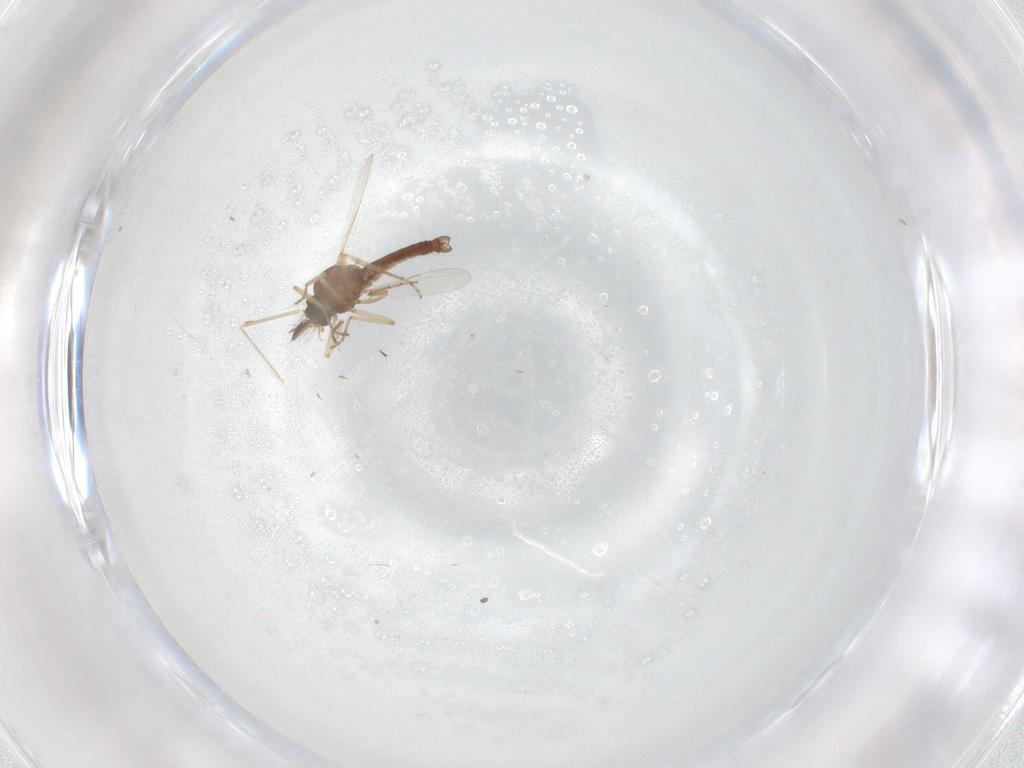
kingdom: Animalia
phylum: Arthropoda
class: Insecta
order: Diptera
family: Ceratopogonidae
